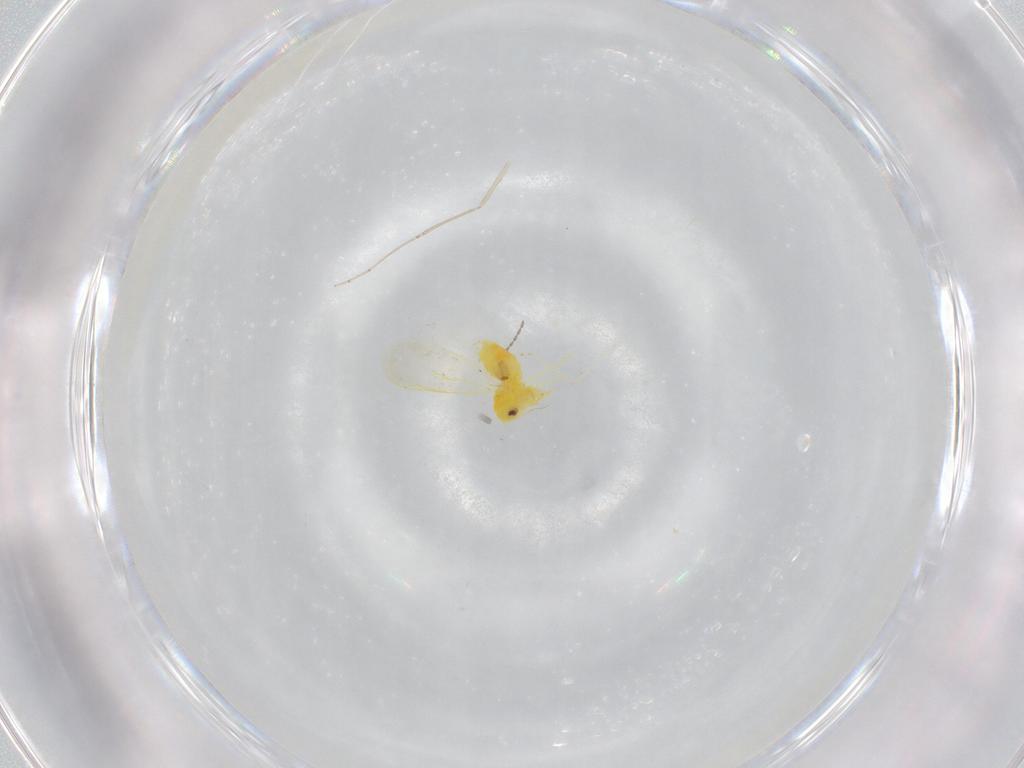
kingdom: Animalia
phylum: Arthropoda
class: Insecta
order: Hemiptera
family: Aleyrodidae
